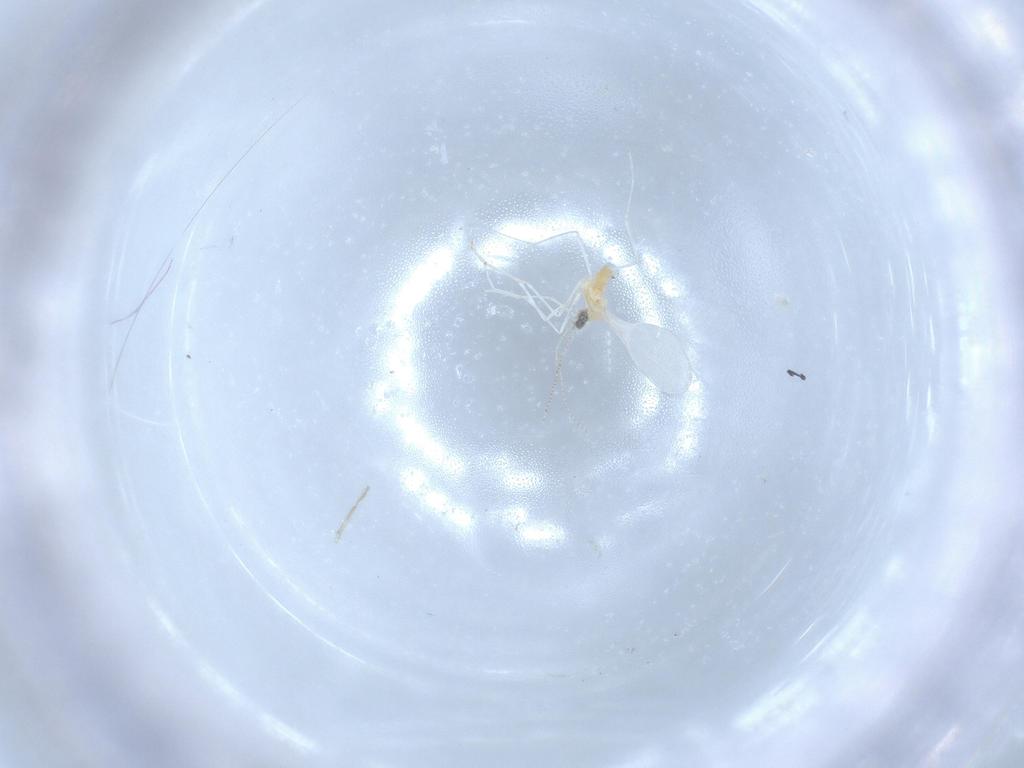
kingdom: Animalia
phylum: Arthropoda
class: Insecta
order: Diptera
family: Cecidomyiidae
